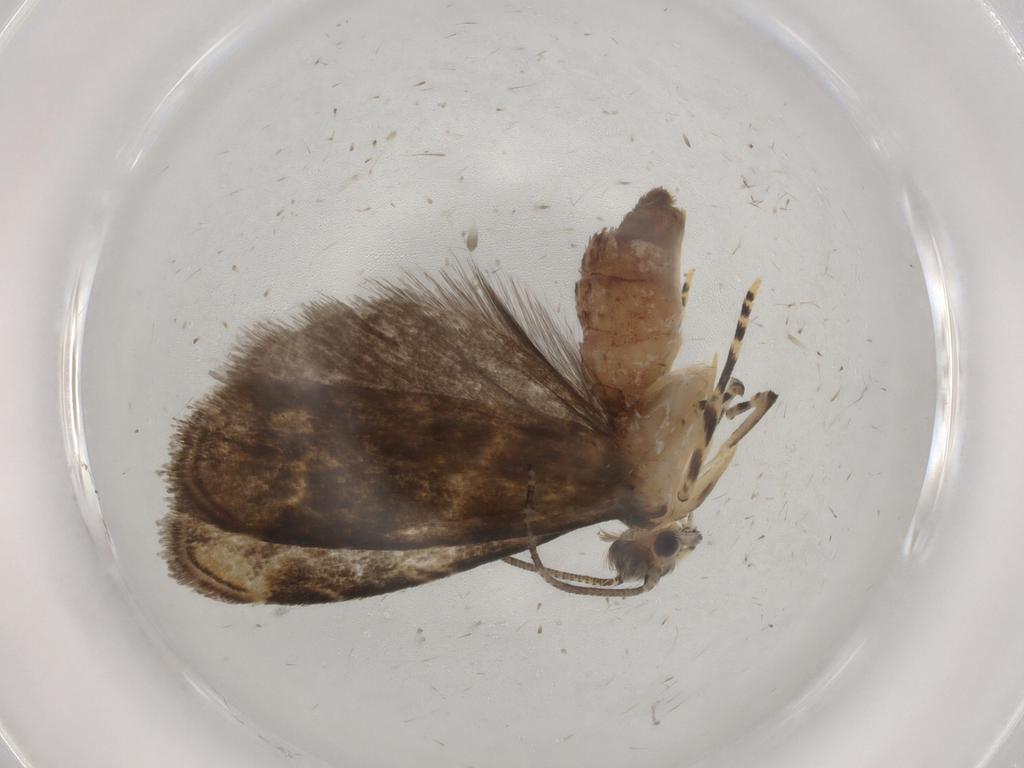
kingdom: Animalia
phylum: Arthropoda
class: Insecta
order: Lepidoptera
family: Tineidae
